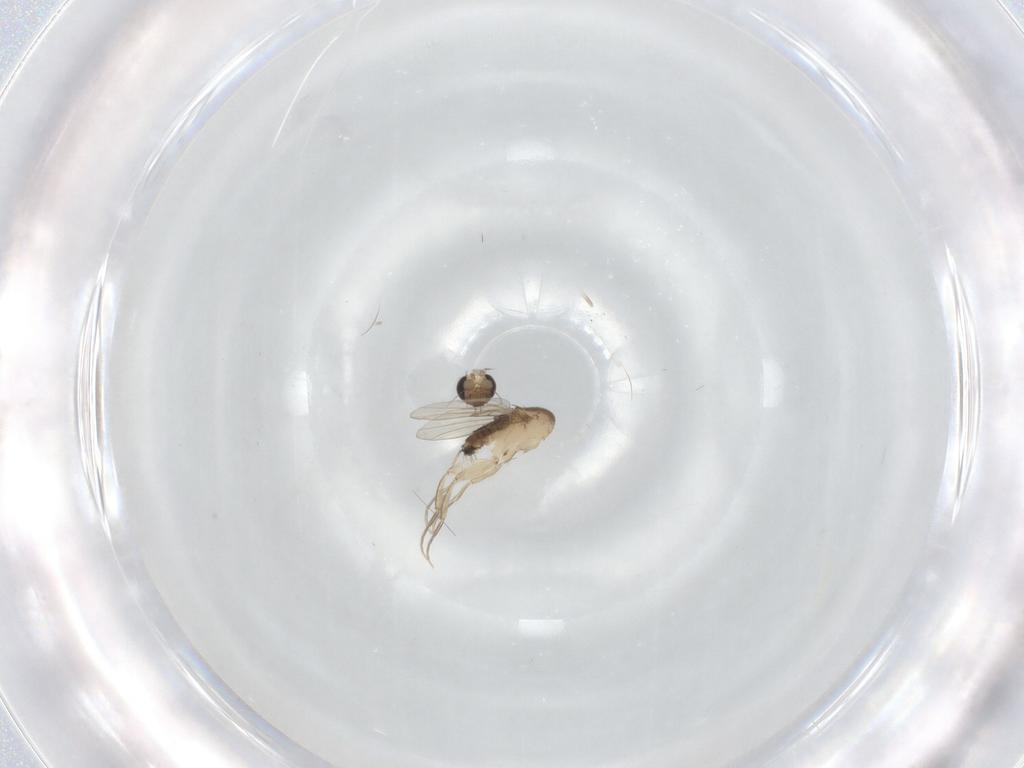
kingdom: Animalia
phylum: Arthropoda
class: Insecta
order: Diptera
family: Phoridae
